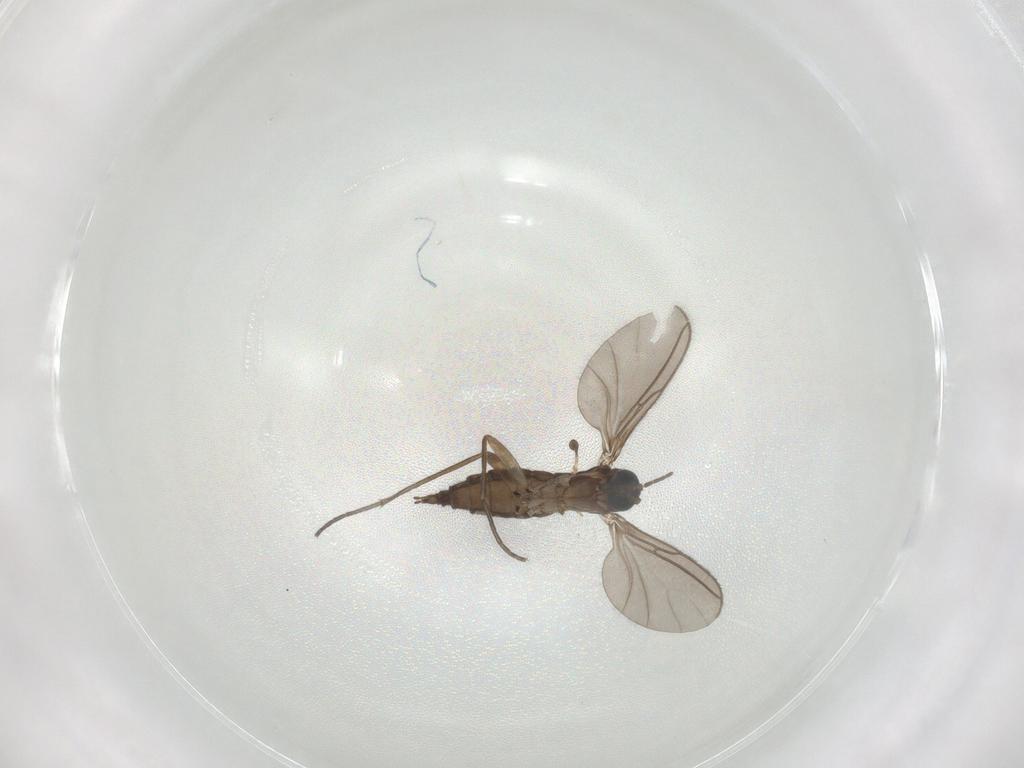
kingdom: Animalia
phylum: Arthropoda
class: Insecta
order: Diptera
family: Sciaridae
